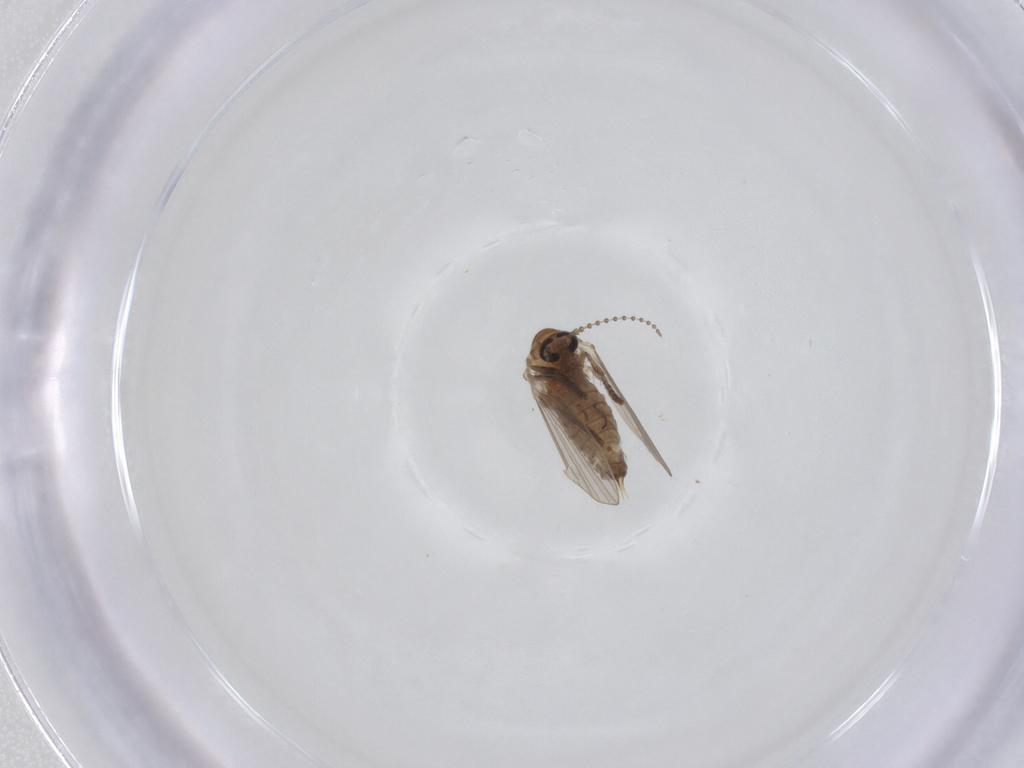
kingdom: Animalia
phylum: Arthropoda
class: Insecta
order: Diptera
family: Psychodidae
